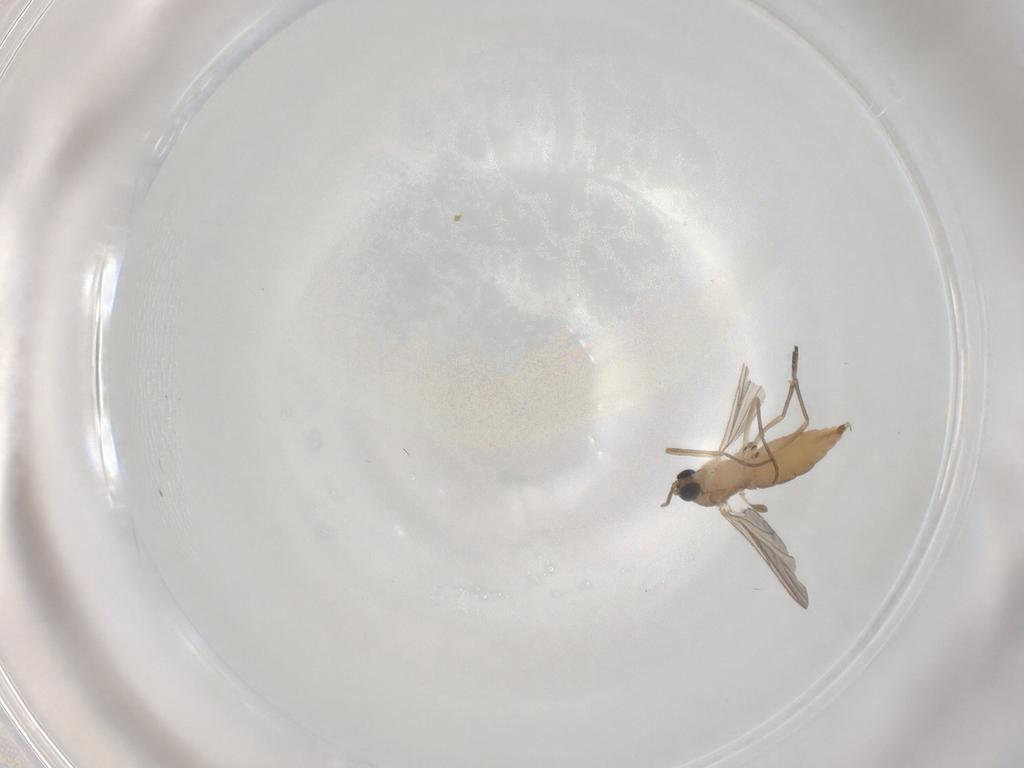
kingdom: Animalia
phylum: Arthropoda
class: Insecta
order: Diptera
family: Sciaridae
